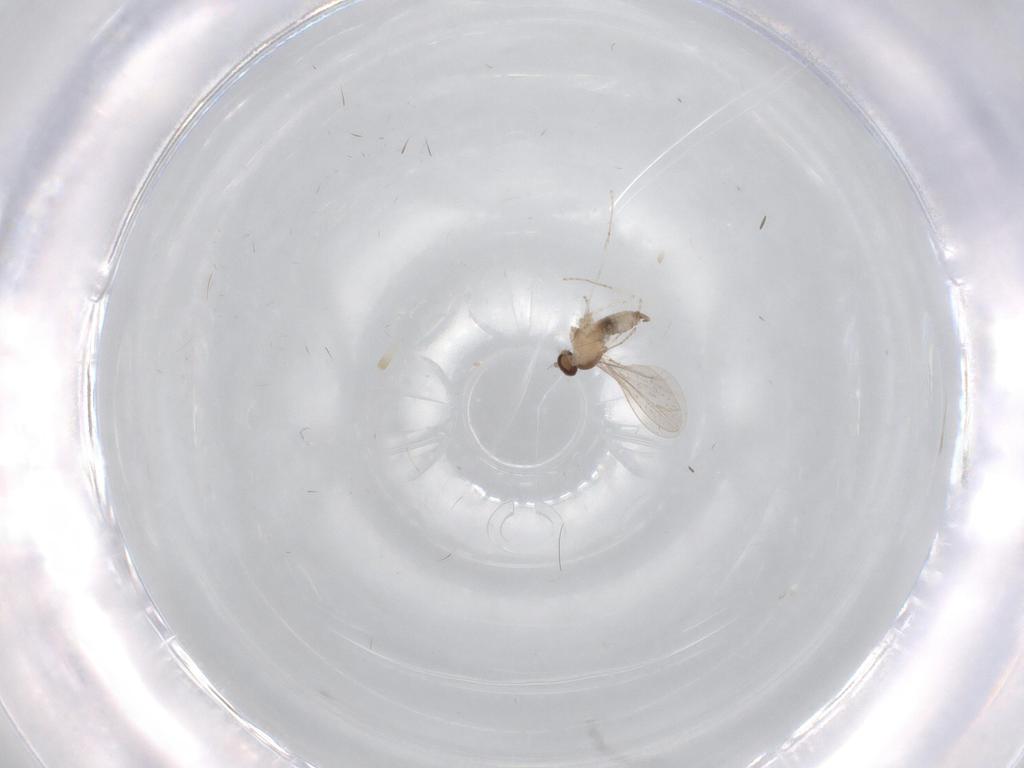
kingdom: Animalia
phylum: Arthropoda
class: Insecta
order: Diptera
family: Cecidomyiidae
